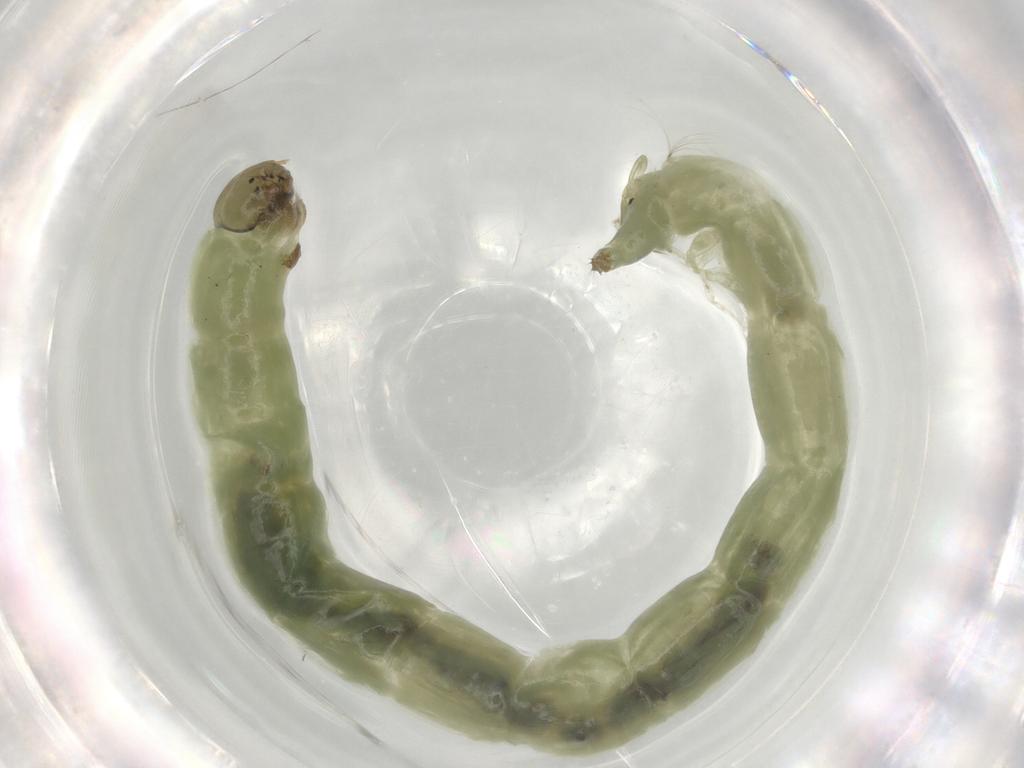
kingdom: Animalia
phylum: Arthropoda
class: Insecta
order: Diptera
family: Chironomidae
